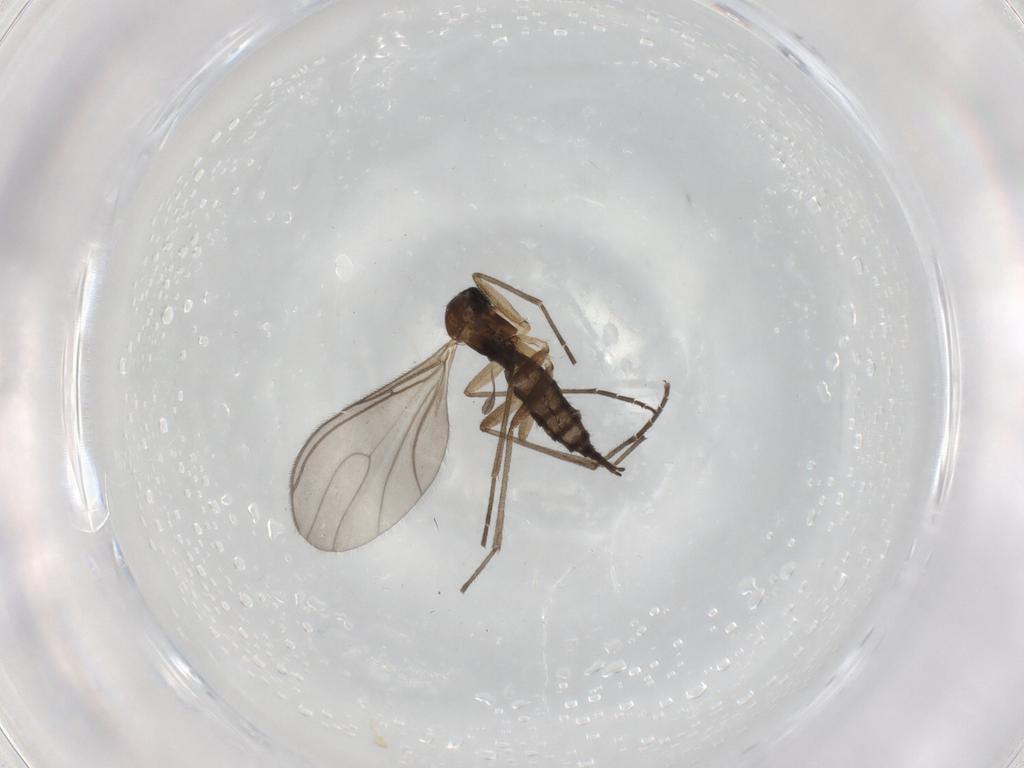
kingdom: Animalia
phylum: Arthropoda
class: Insecta
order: Diptera
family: Sciaridae
